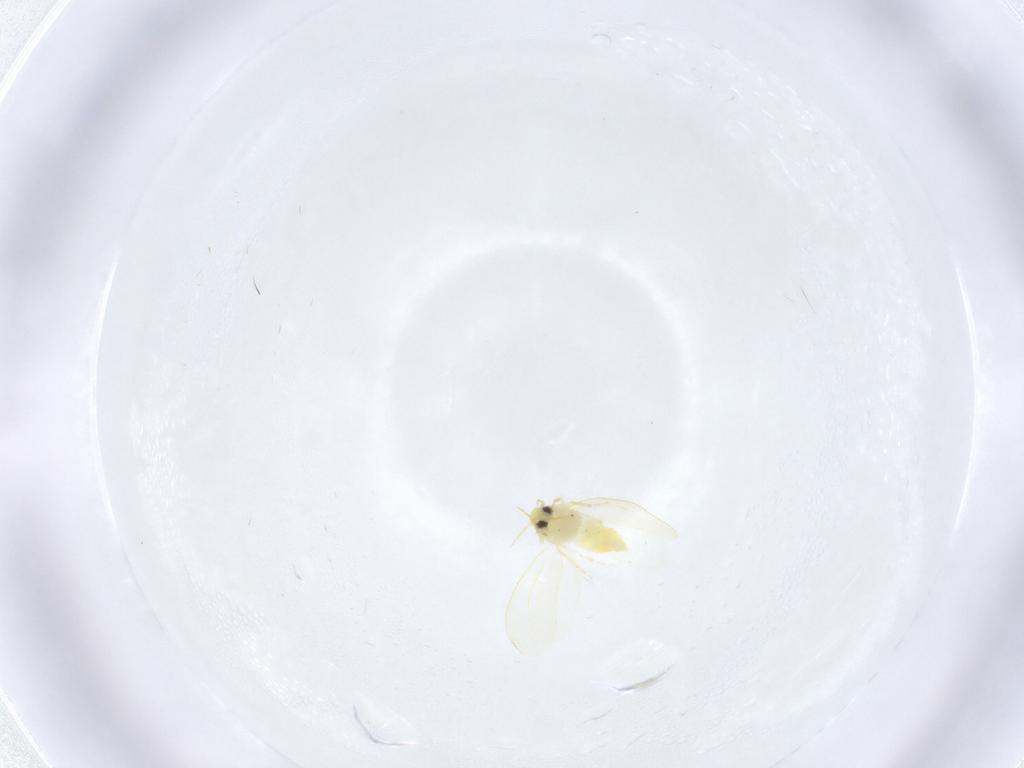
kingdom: Animalia
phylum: Arthropoda
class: Insecta
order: Hemiptera
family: Aleyrodidae
